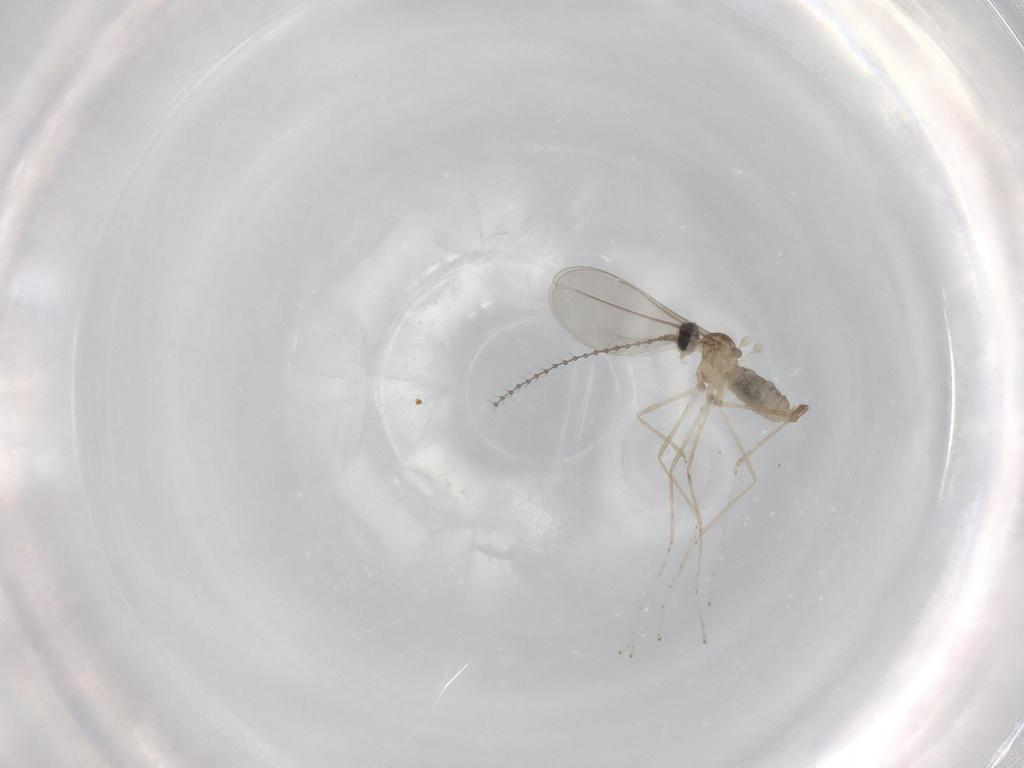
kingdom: Animalia
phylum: Arthropoda
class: Insecta
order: Diptera
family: Cecidomyiidae
